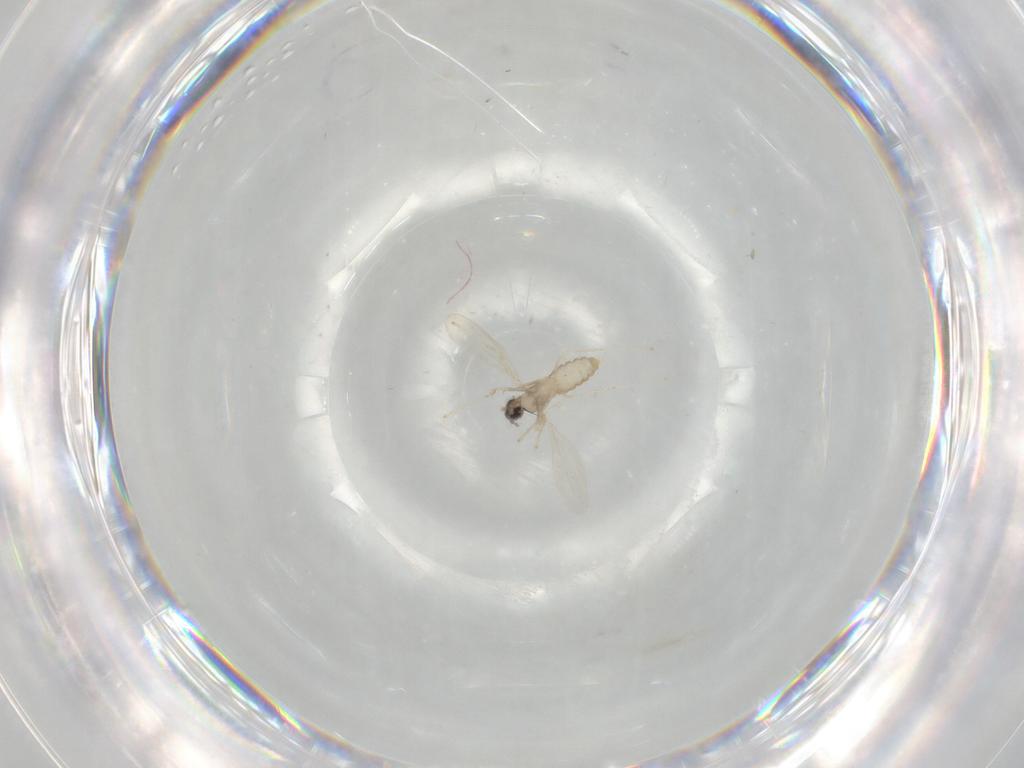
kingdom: Animalia
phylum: Arthropoda
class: Insecta
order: Diptera
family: Cecidomyiidae
